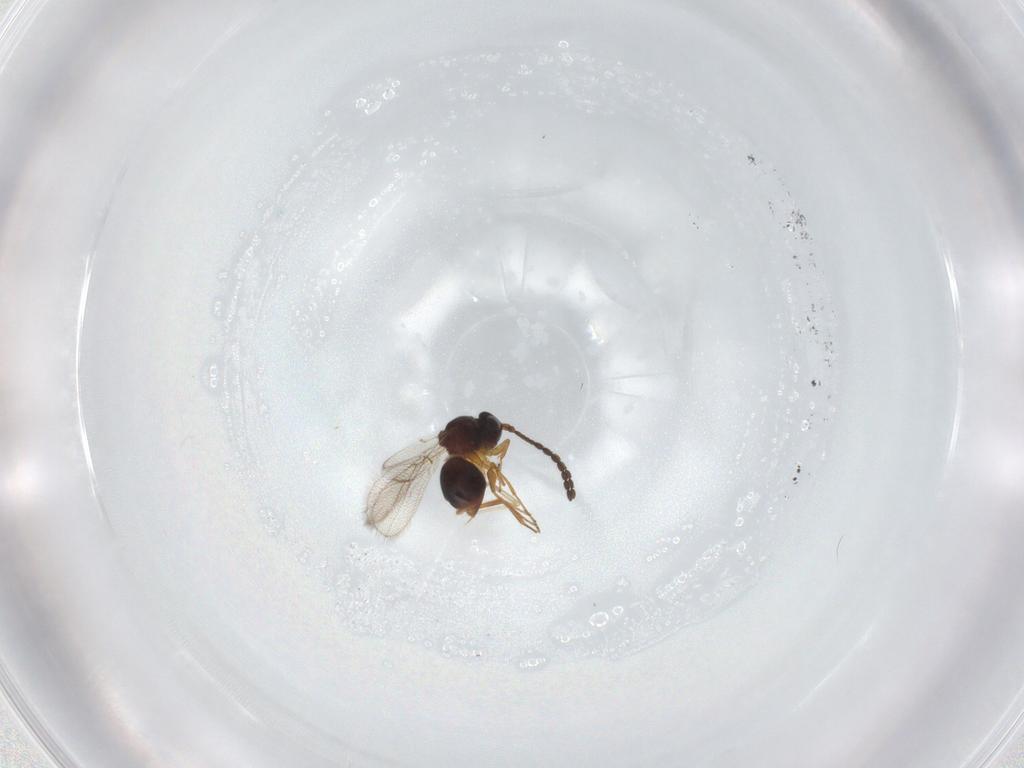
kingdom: Animalia
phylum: Arthropoda
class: Insecta
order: Hymenoptera
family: Figitidae
